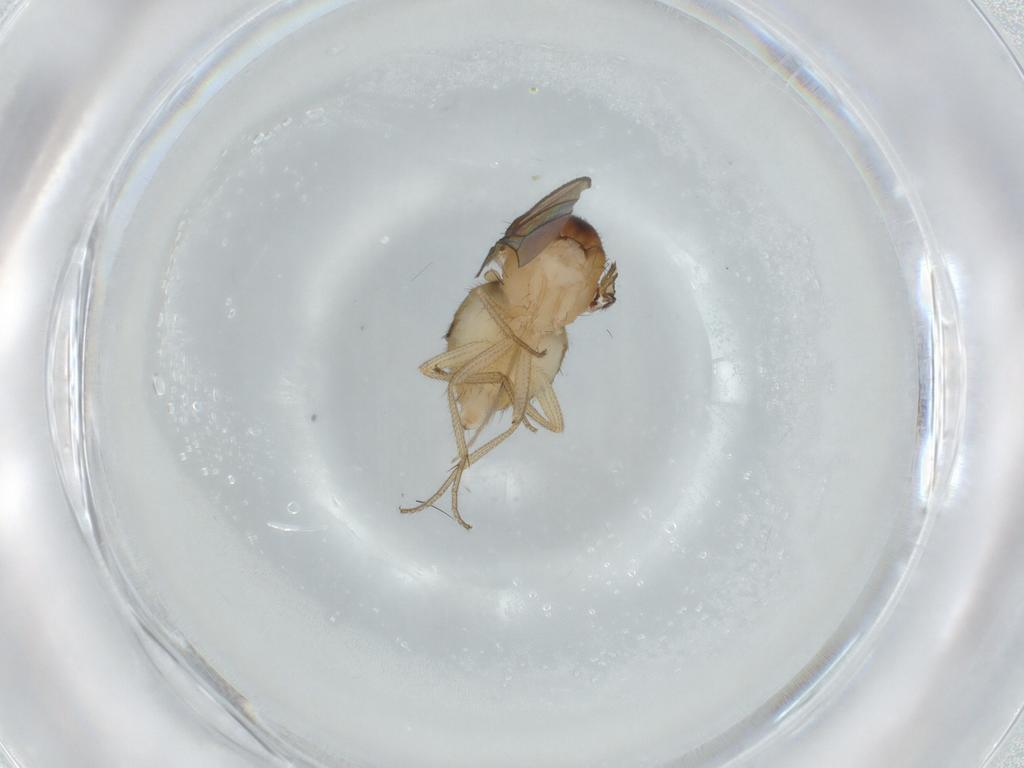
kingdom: Animalia
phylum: Arthropoda
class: Insecta
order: Diptera
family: Drosophilidae
